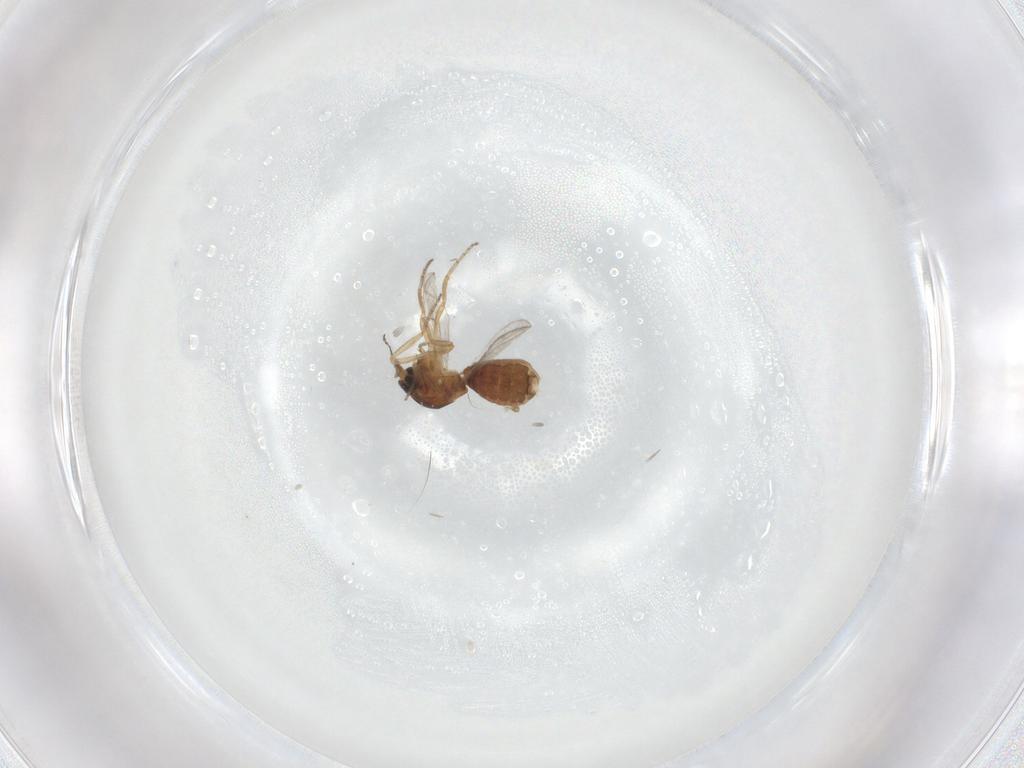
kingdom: Animalia
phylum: Arthropoda
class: Insecta
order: Diptera
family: Ceratopogonidae
